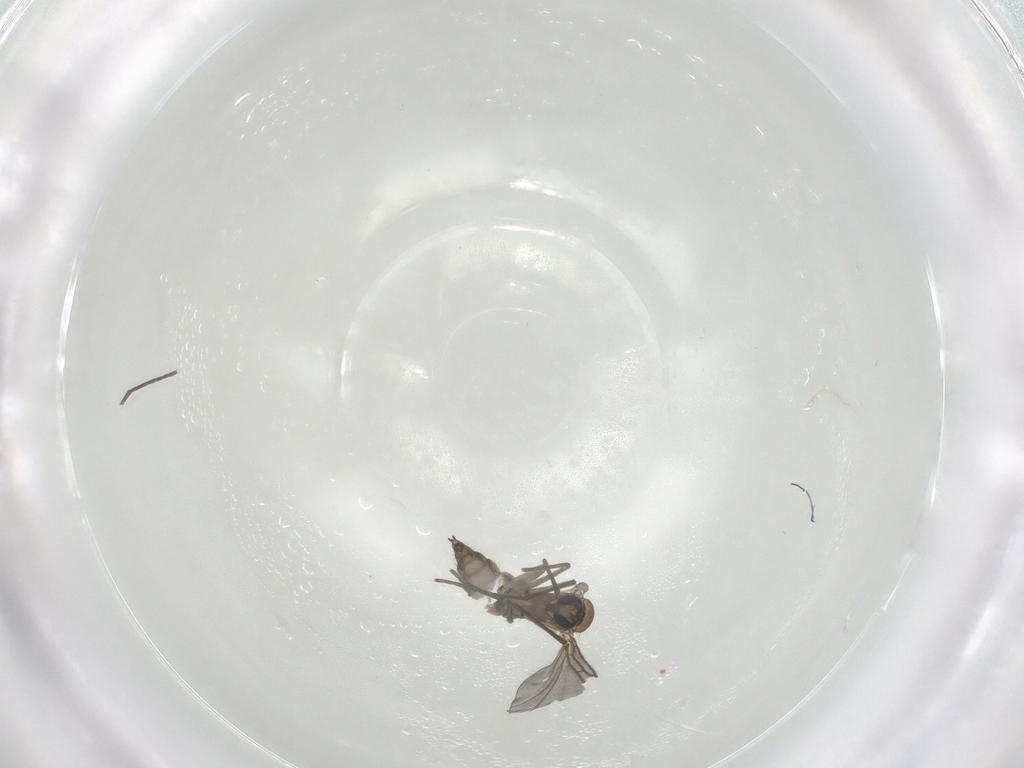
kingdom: Animalia
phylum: Arthropoda
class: Insecta
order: Diptera
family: Sciaridae
